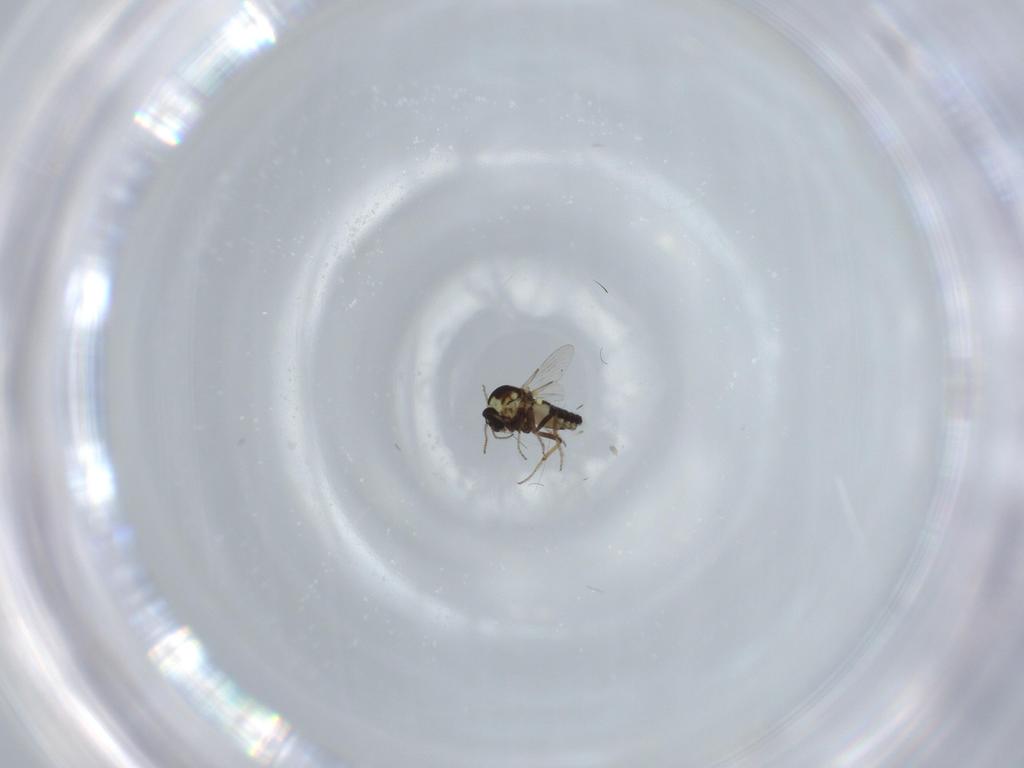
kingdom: Animalia
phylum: Arthropoda
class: Insecta
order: Diptera
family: Ceratopogonidae
